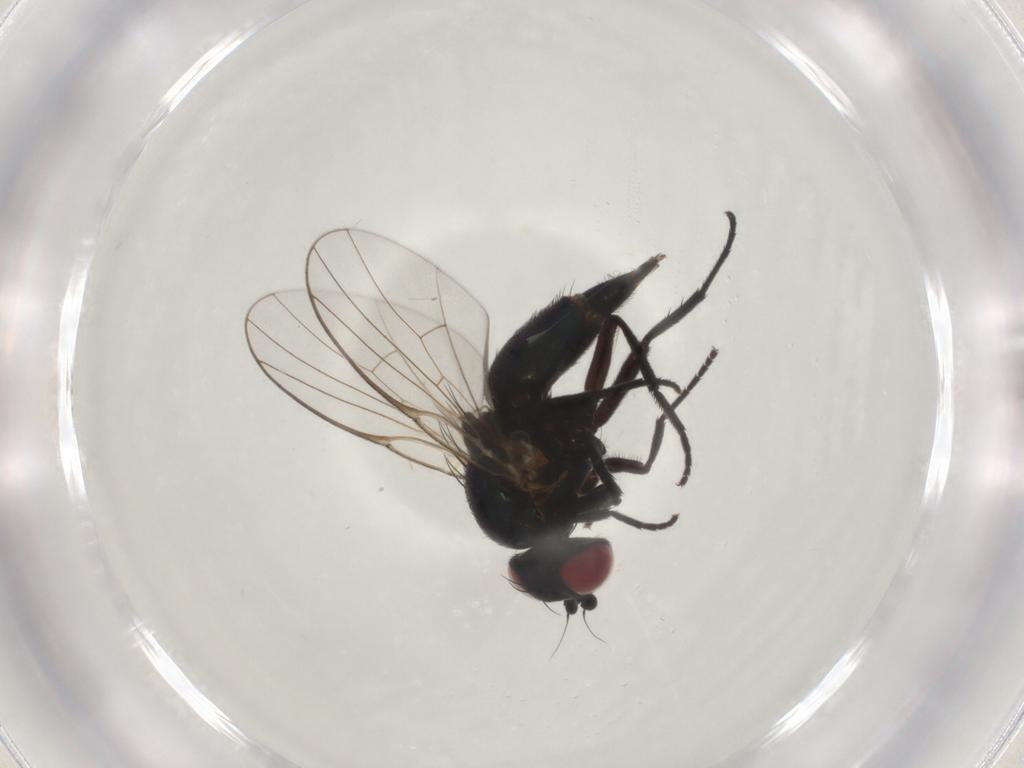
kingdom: Animalia
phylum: Arthropoda
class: Insecta
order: Diptera
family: Agromyzidae
